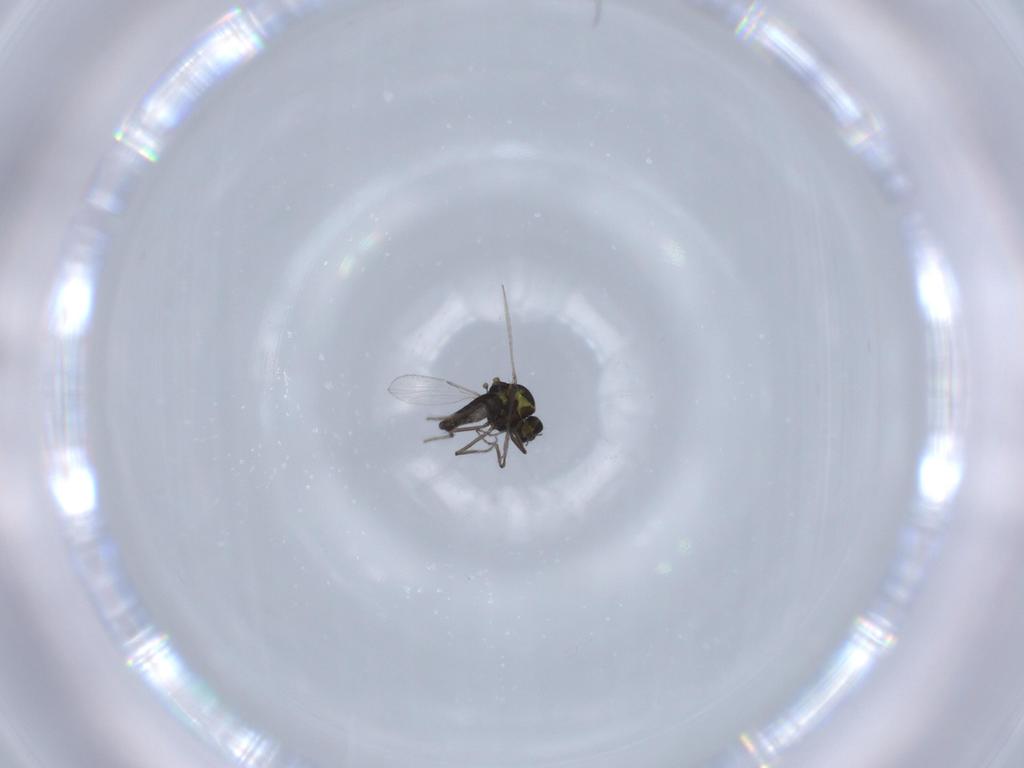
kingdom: Animalia
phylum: Arthropoda
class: Insecta
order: Diptera
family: Ceratopogonidae
